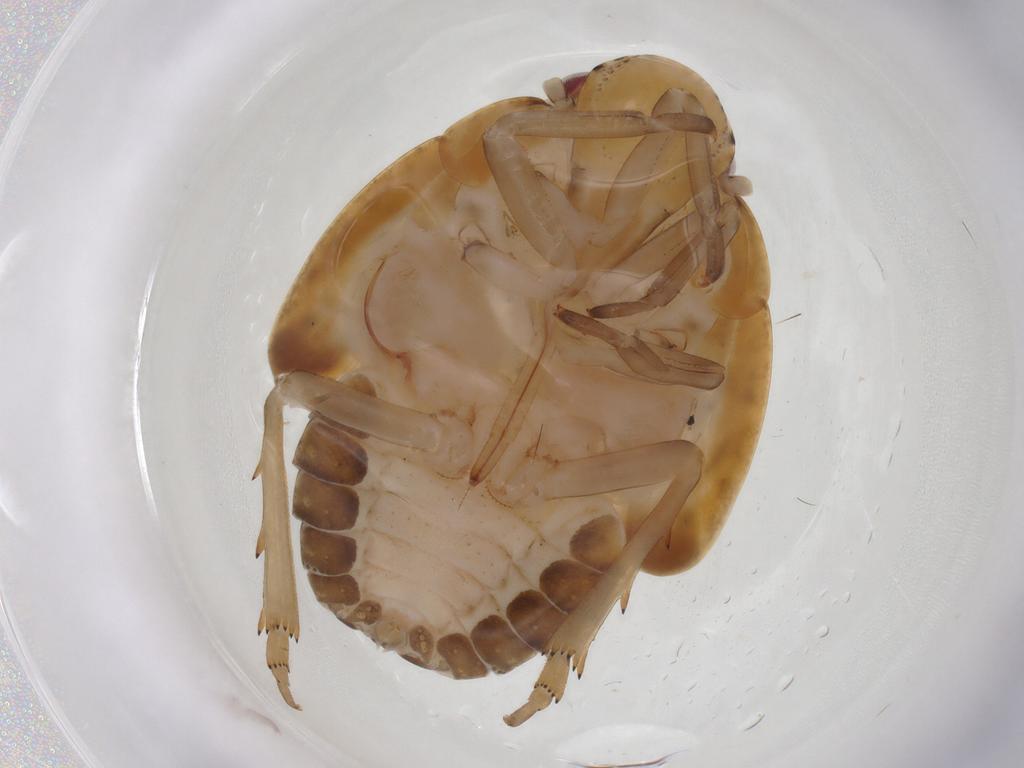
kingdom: Animalia
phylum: Arthropoda
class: Insecta
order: Hemiptera
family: Flatidae
